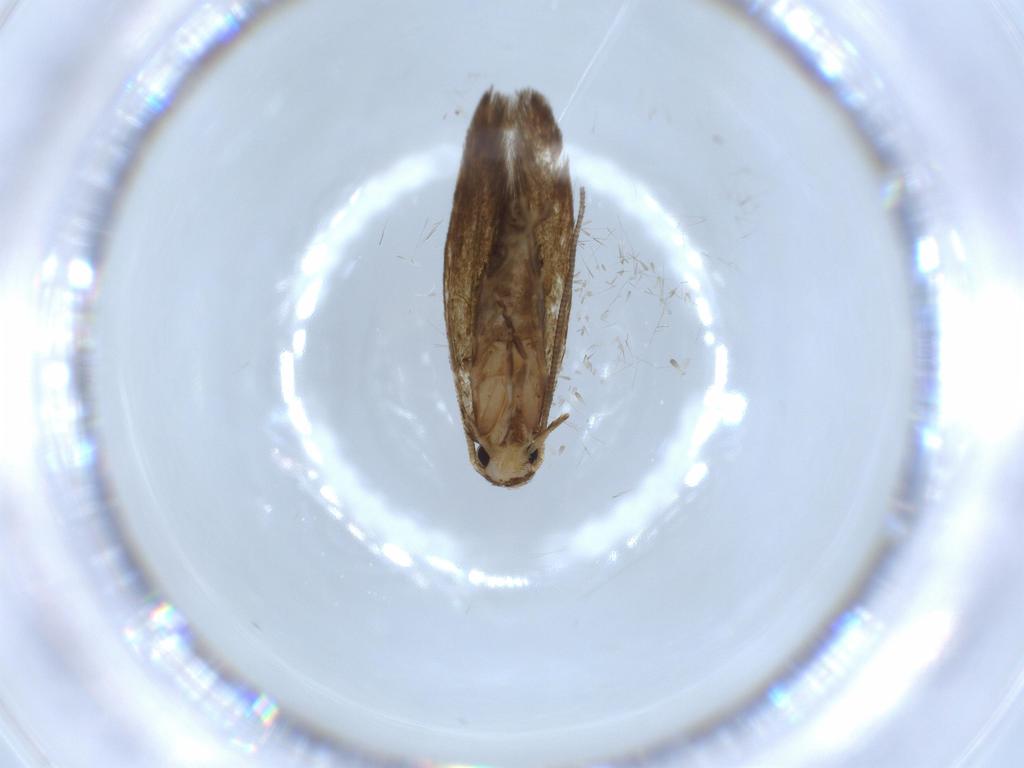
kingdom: Animalia
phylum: Arthropoda
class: Insecta
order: Lepidoptera
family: Tineidae
